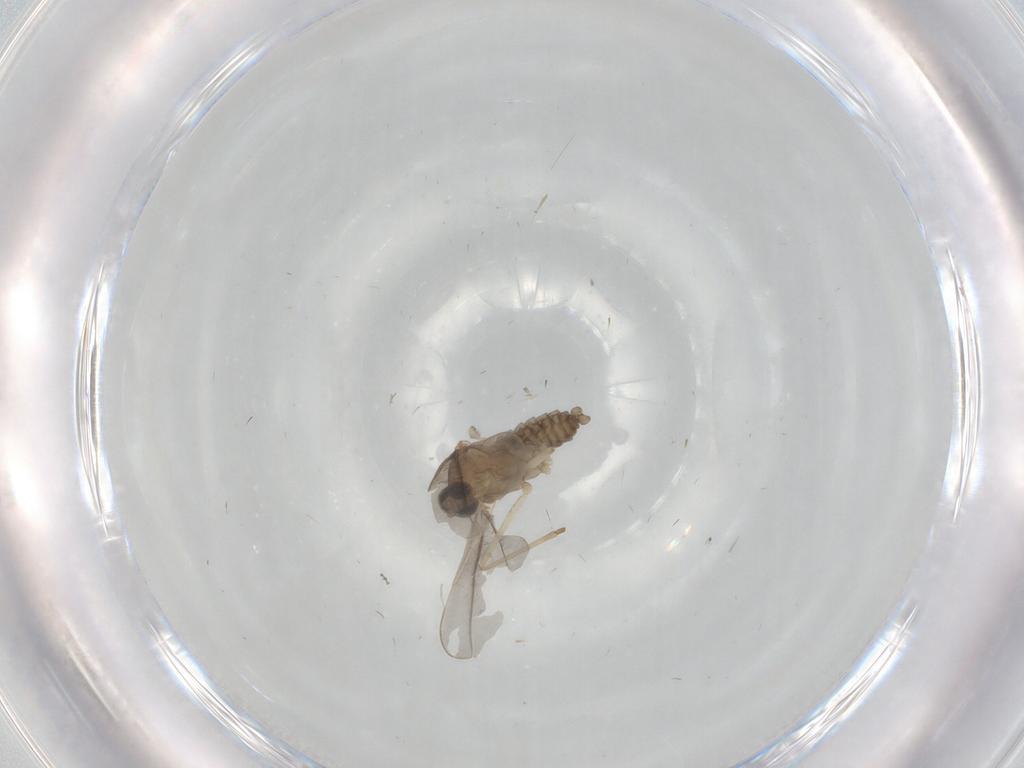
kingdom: Animalia
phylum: Arthropoda
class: Insecta
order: Diptera
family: Cecidomyiidae
